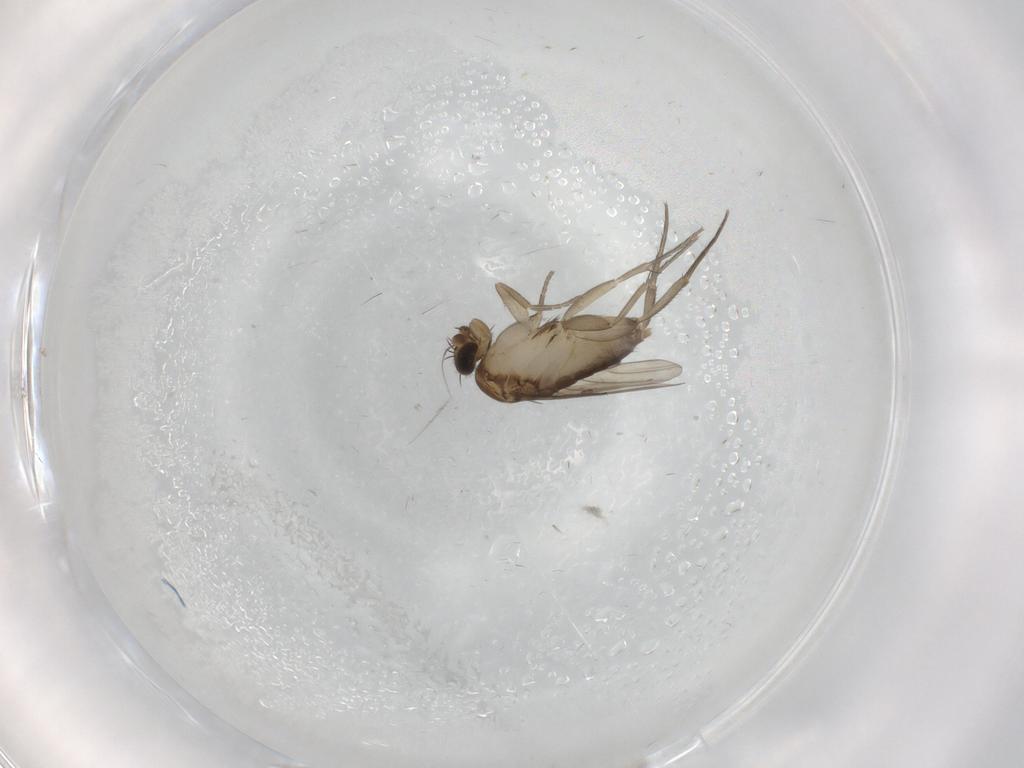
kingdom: Animalia
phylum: Arthropoda
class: Insecta
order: Diptera
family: Phoridae
